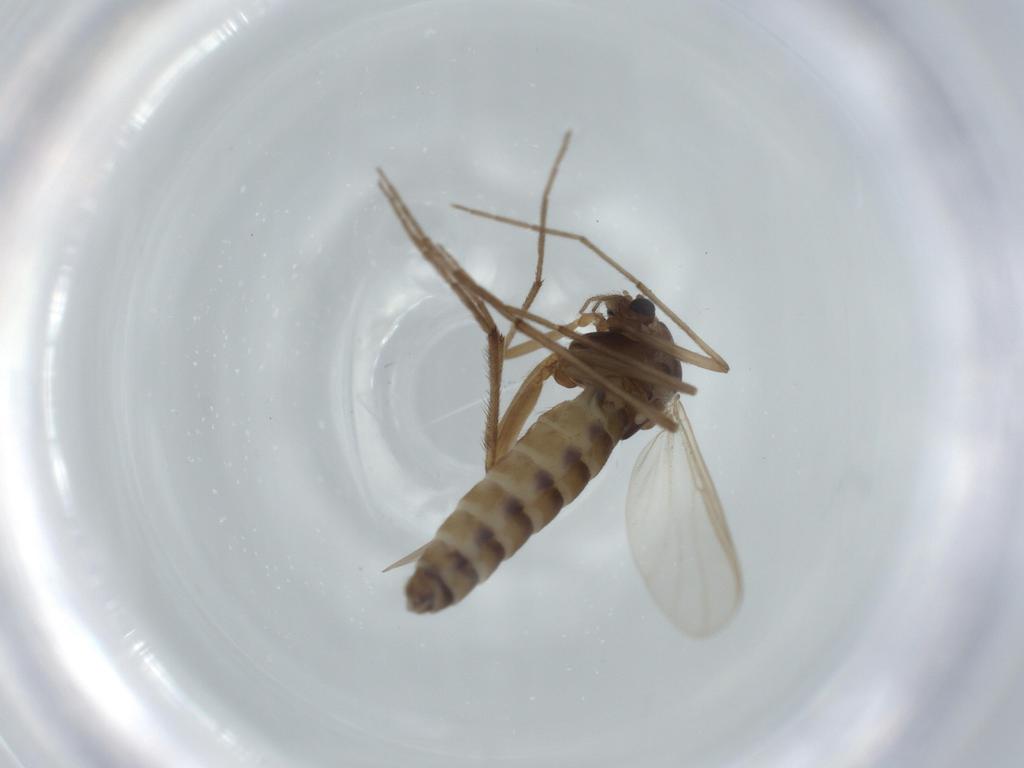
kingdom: Animalia
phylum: Arthropoda
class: Insecta
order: Diptera
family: Chironomidae
